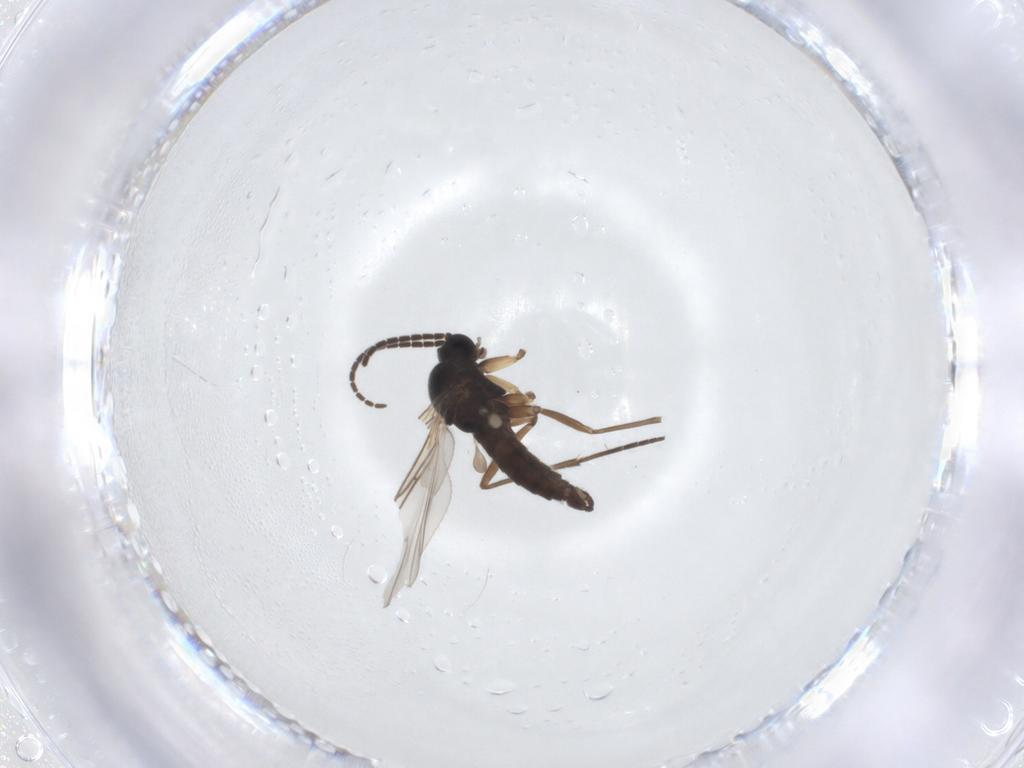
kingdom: Animalia
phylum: Arthropoda
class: Insecta
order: Diptera
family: Sciaridae
